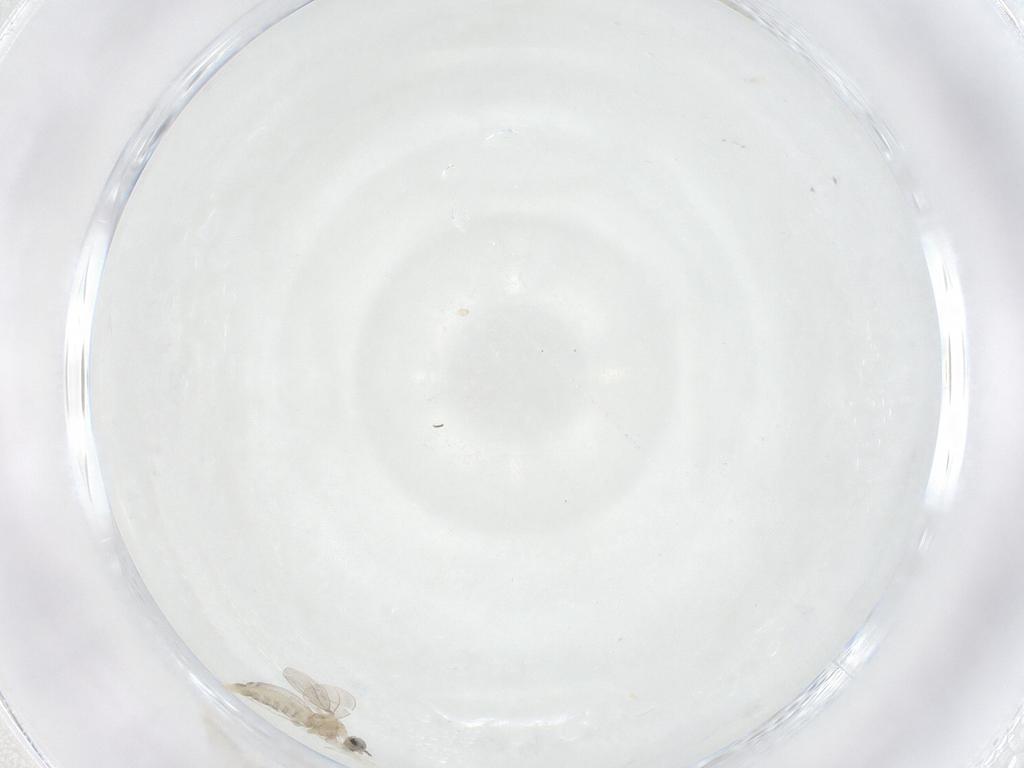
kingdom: Animalia
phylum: Arthropoda
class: Insecta
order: Diptera
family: Cecidomyiidae
